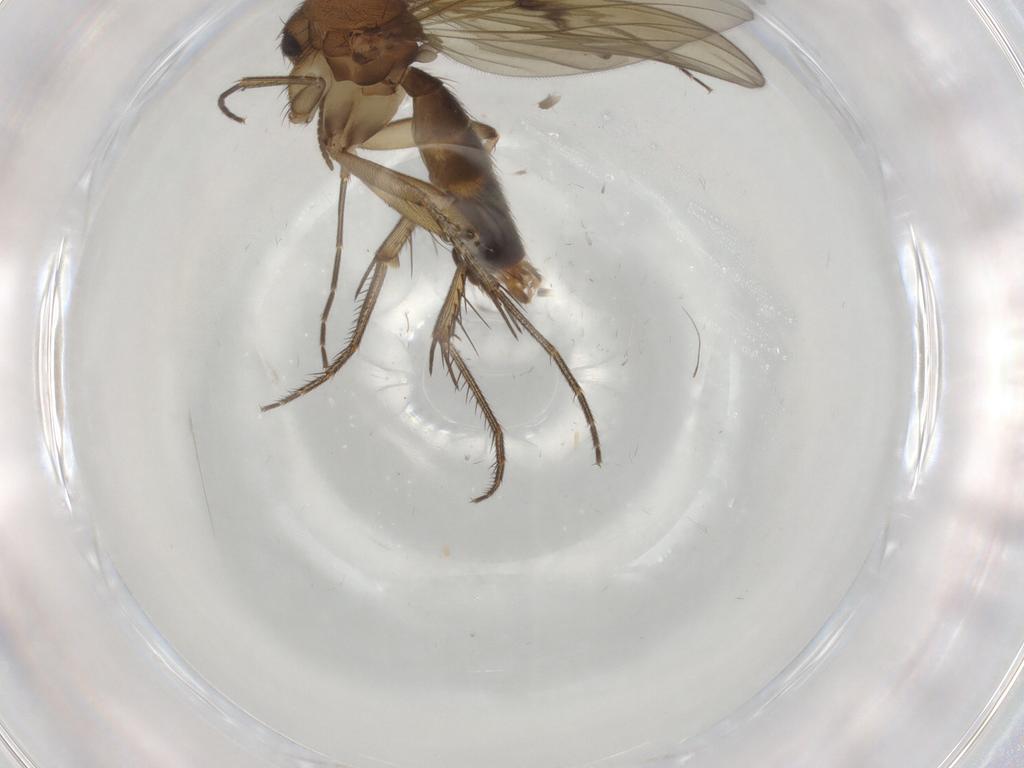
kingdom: Animalia
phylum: Arthropoda
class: Insecta
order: Diptera
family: Mycetophilidae
